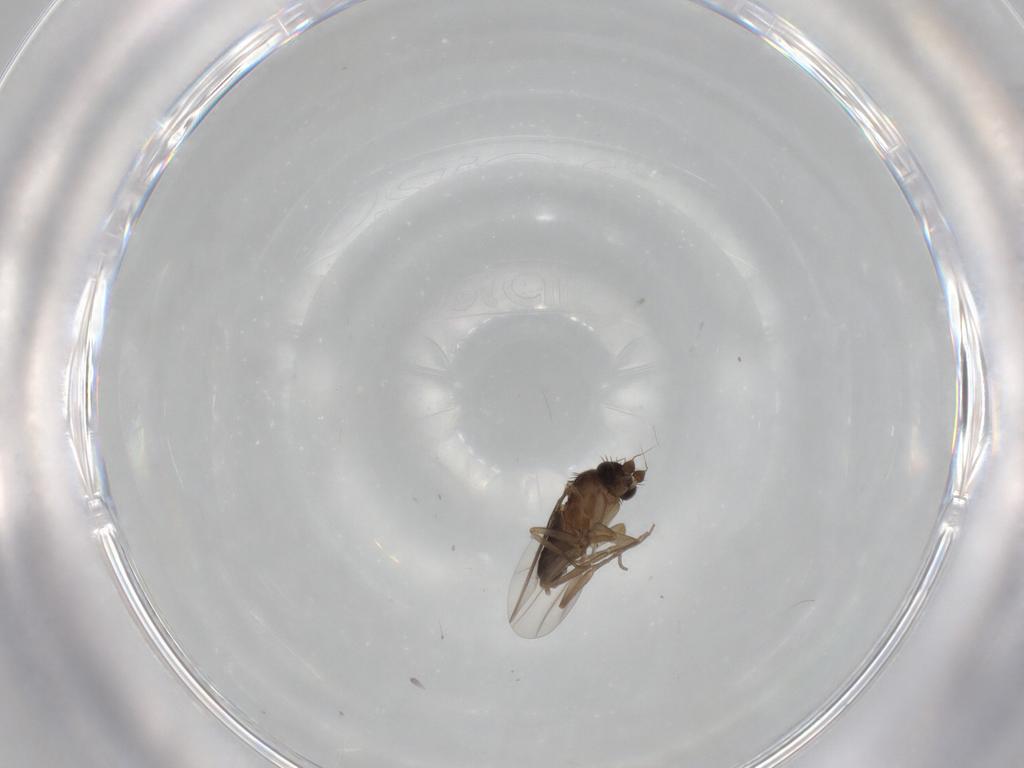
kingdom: Animalia
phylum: Arthropoda
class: Insecta
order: Diptera
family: Phoridae
